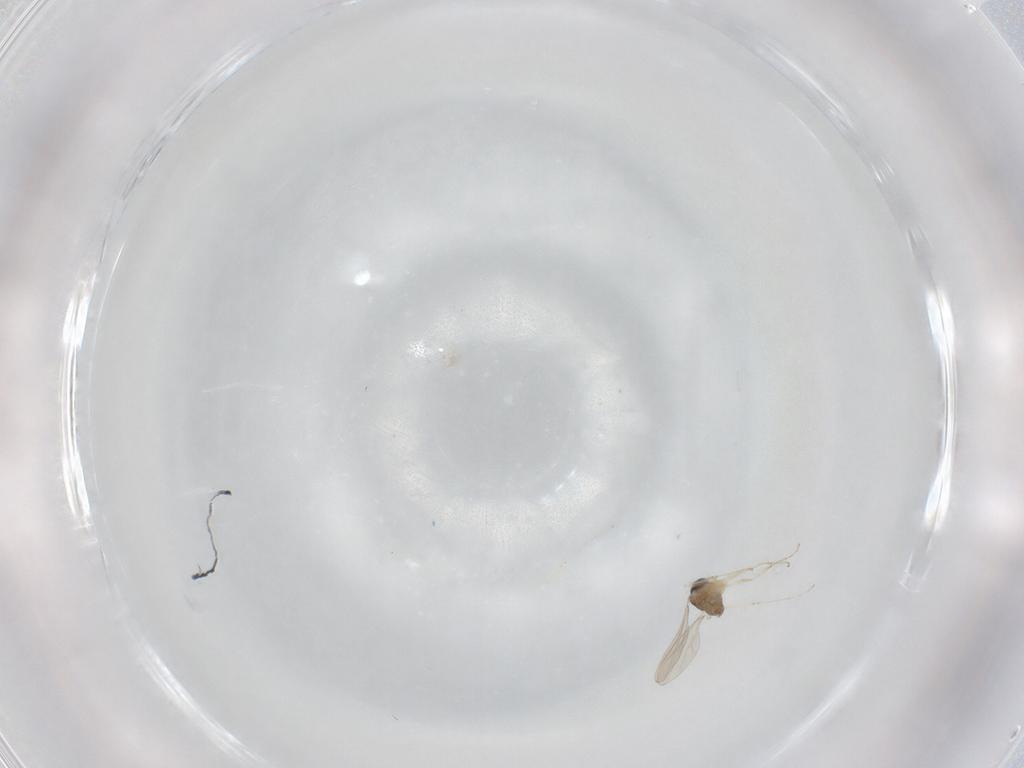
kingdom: Animalia
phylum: Arthropoda
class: Insecta
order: Diptera
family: Cecidomyiidae
